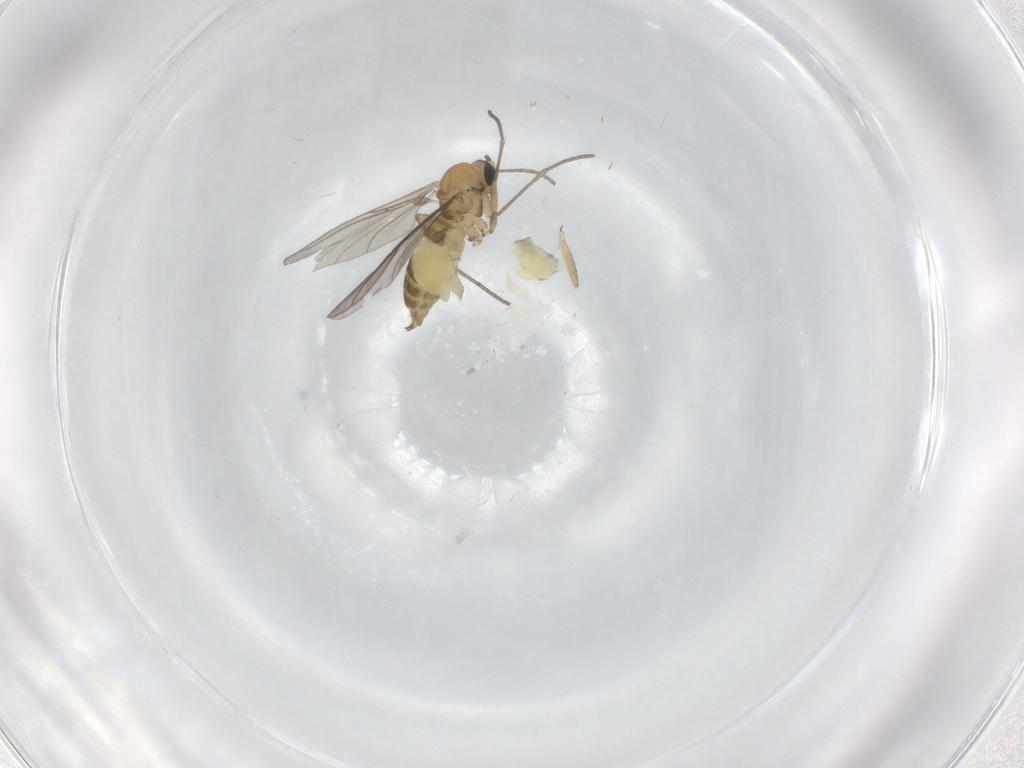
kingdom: Animalia
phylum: Arthropoda
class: Insecta
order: Diptera
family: Sciaridae
